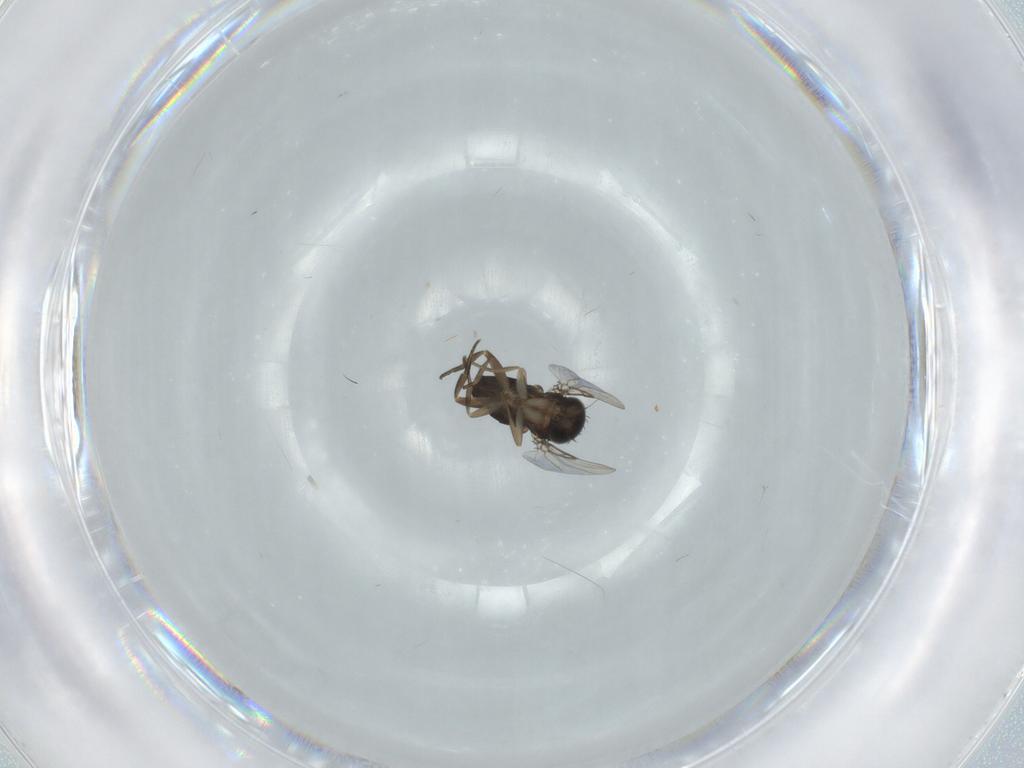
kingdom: Animalia
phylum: Arthropoda
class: Insecta
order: Diptera
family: Phoridae
